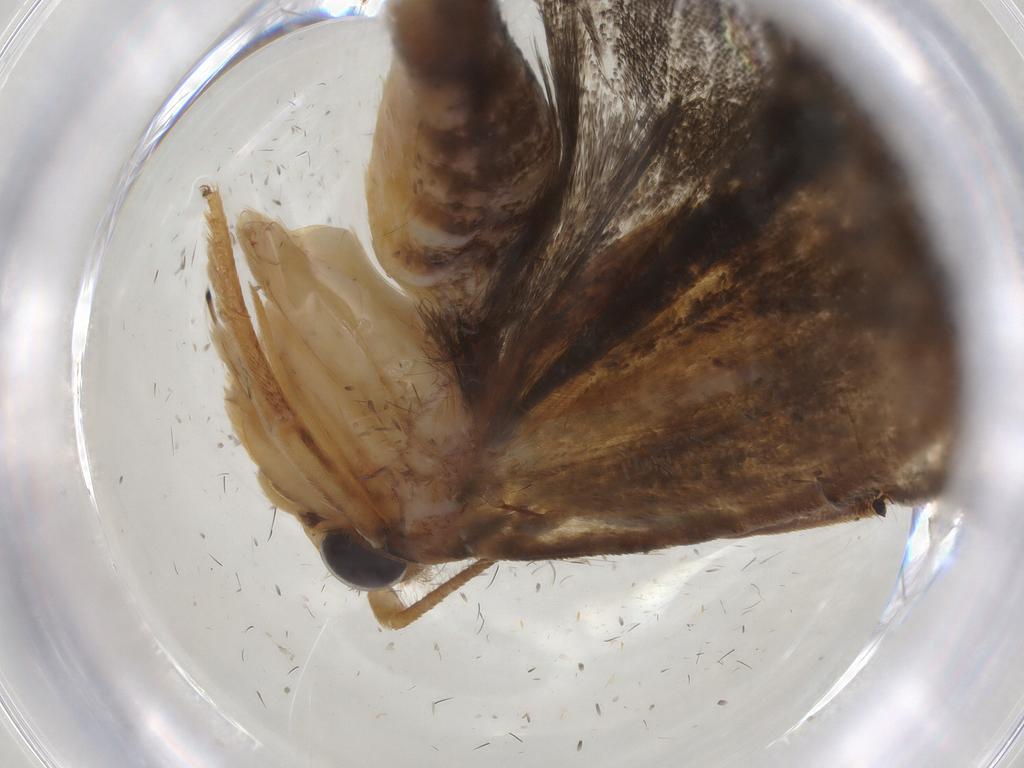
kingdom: Animalia
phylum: Arthropoda
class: Insecta
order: Lepidoptera
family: Depressariidae
